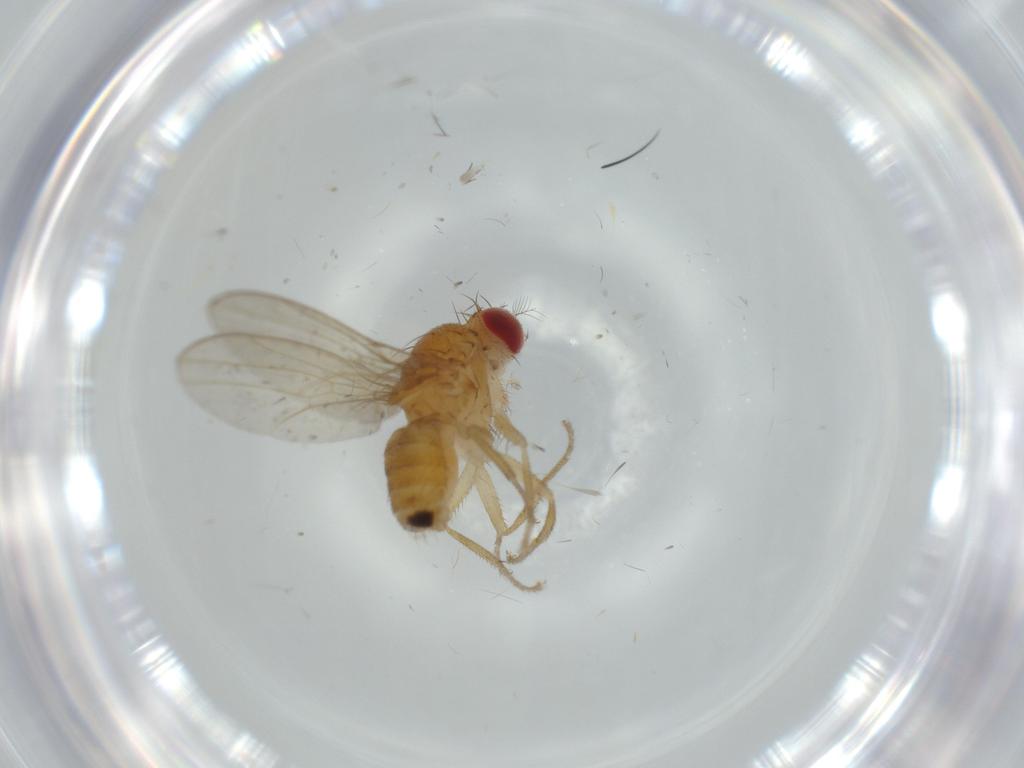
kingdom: Animalia
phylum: Arthropoda
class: Insecta
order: Diptera
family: Drosophilidae
